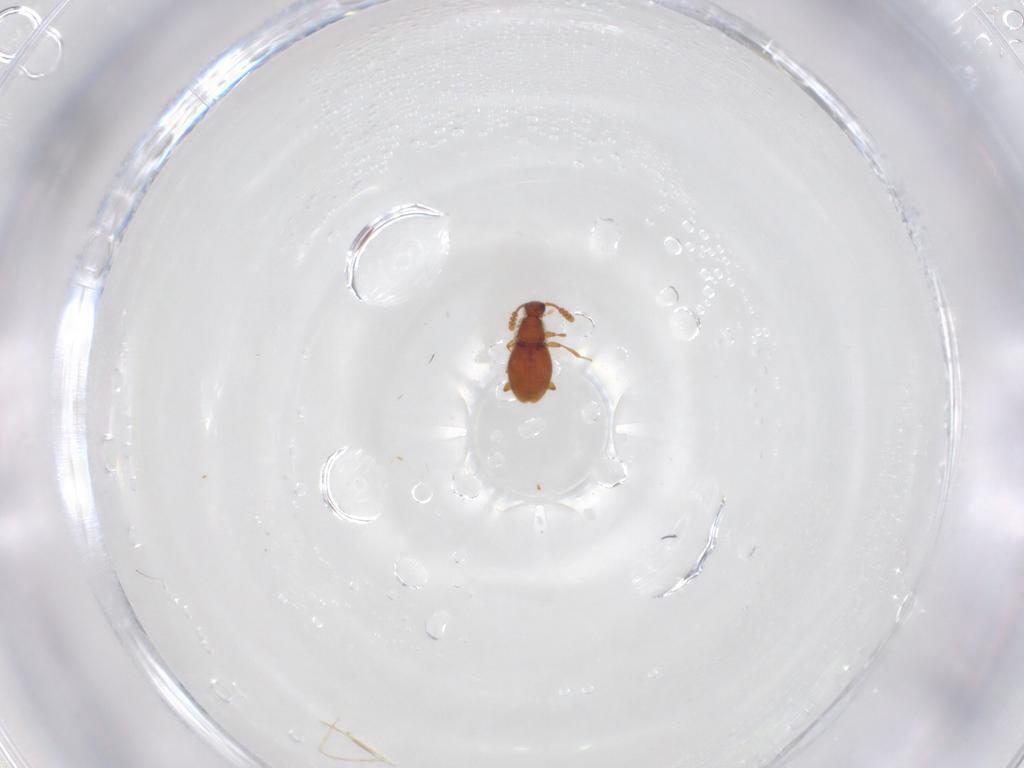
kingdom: Animalia
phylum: Arthropoda
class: Insecta
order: Coleoptera
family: Staphylinidae
